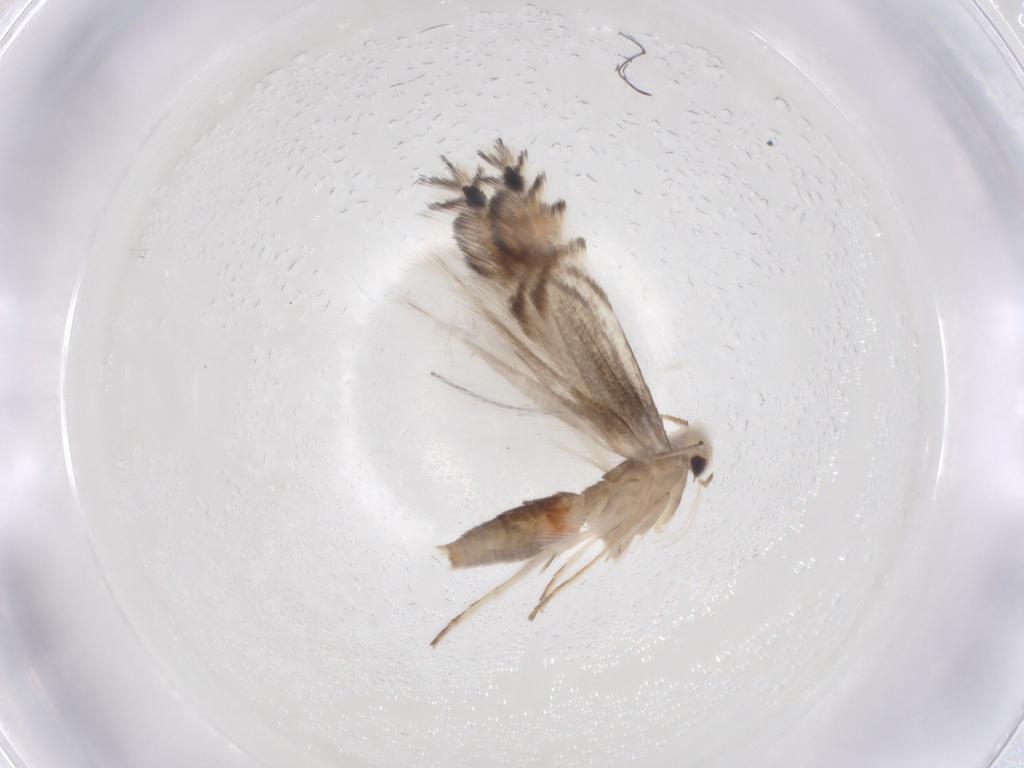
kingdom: Animalia
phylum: Arthropoda
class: Insecta
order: Lepidoptera
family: Gracillariidae
